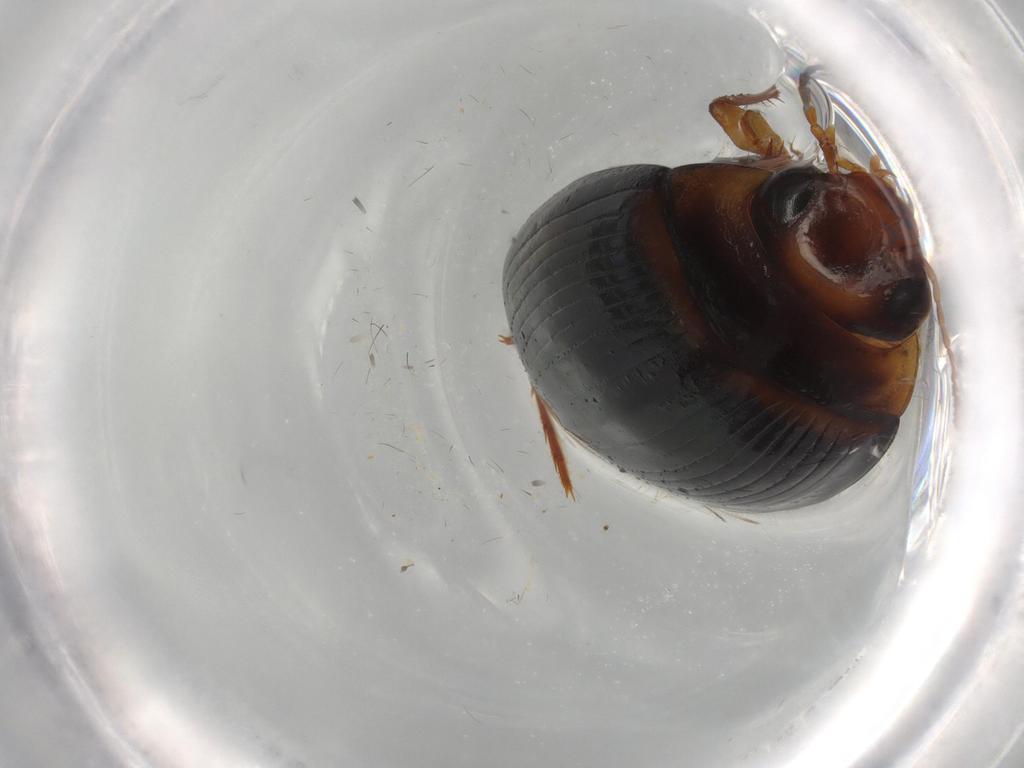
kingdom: Animalia
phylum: Arthropoda
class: Insecta
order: Coleoptera
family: Dytiscidae
